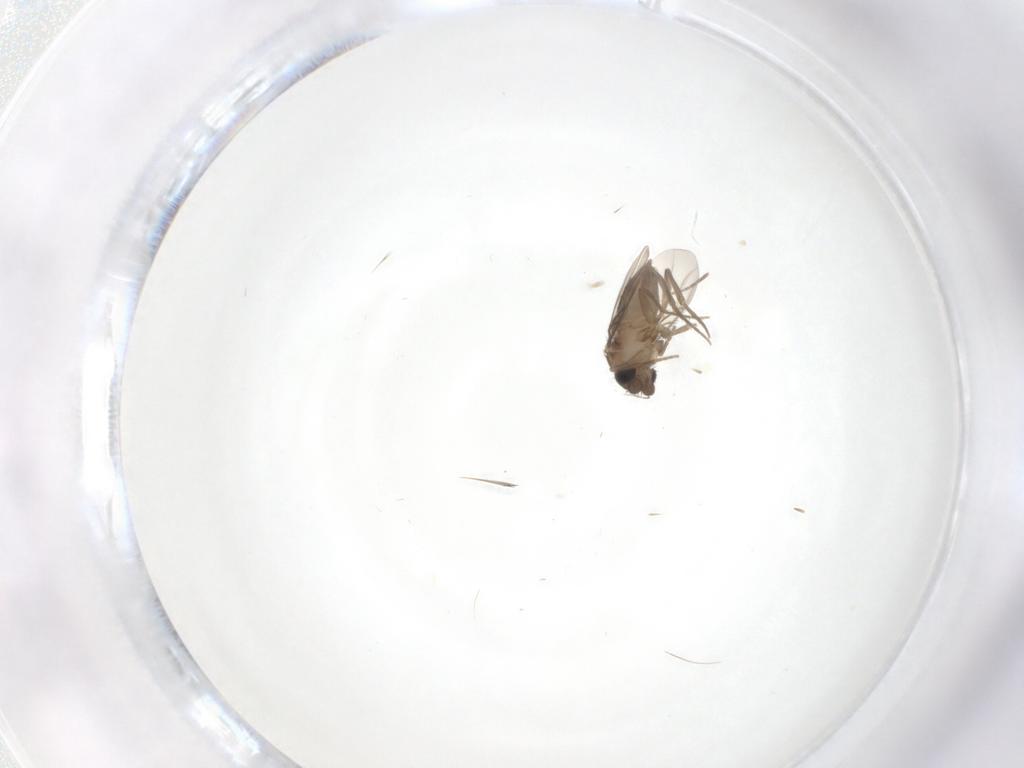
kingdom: Animalia
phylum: Arthropoda
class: Insecta
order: Diptera
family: Phoridae
